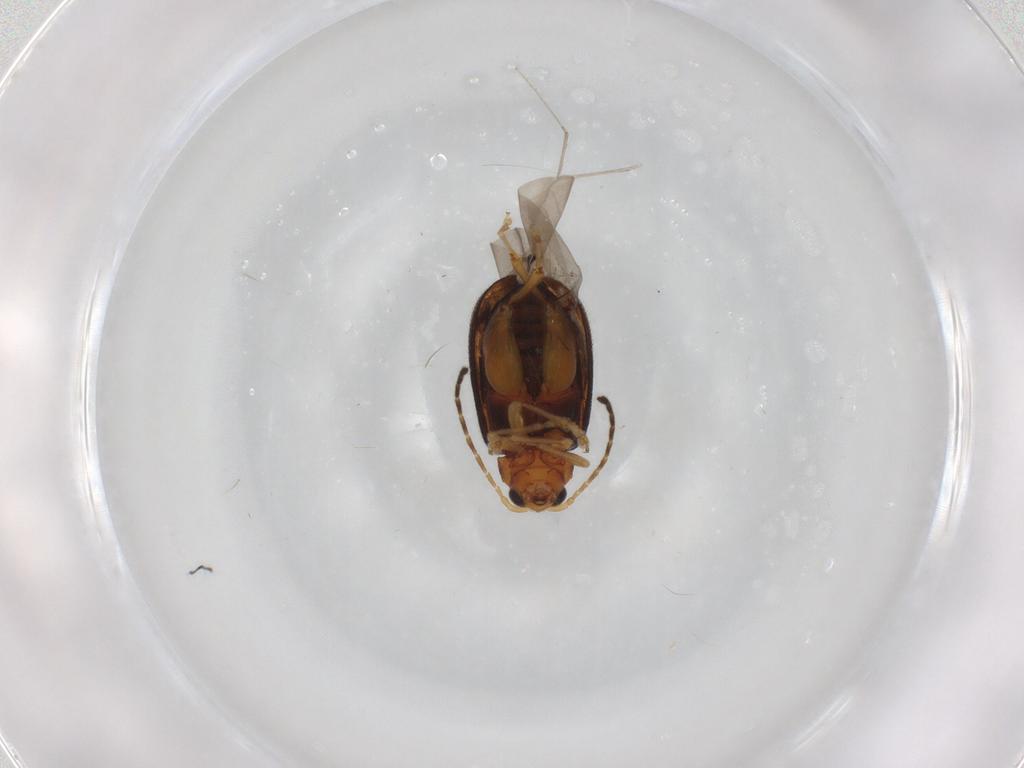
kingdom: Animalia
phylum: Arthropoda
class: Insecta
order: Coleoptera
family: Chrysomelidae
